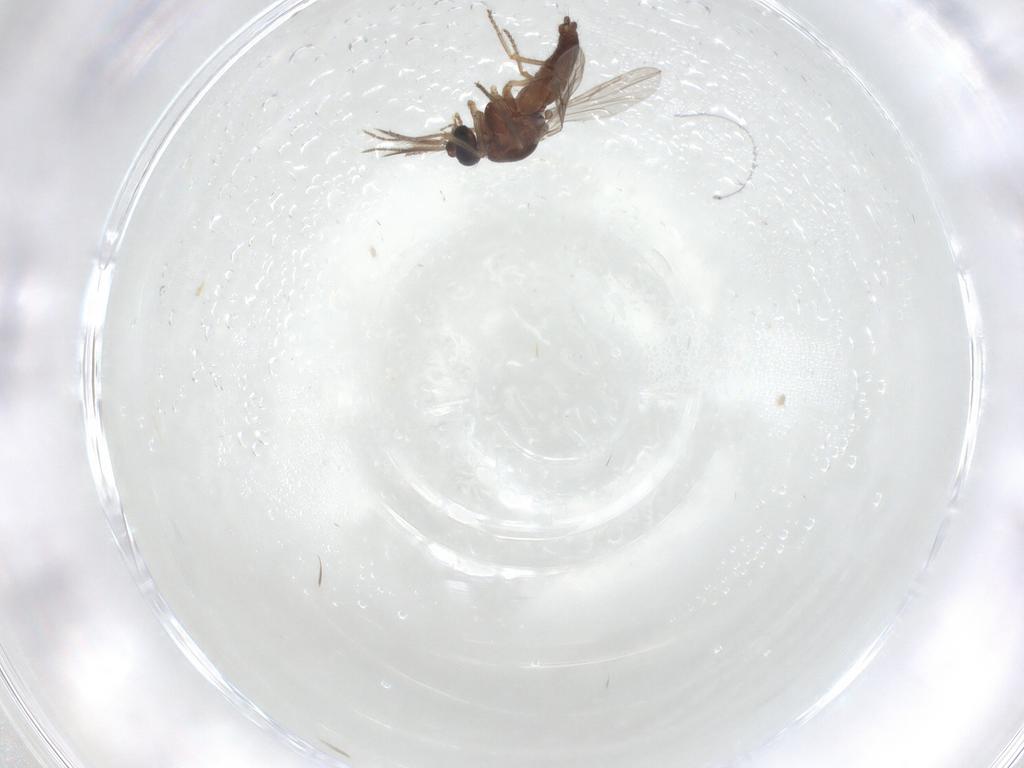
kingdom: Animalia
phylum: Arthropoda
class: Insecta
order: Diptera
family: Ceratopogonidae
